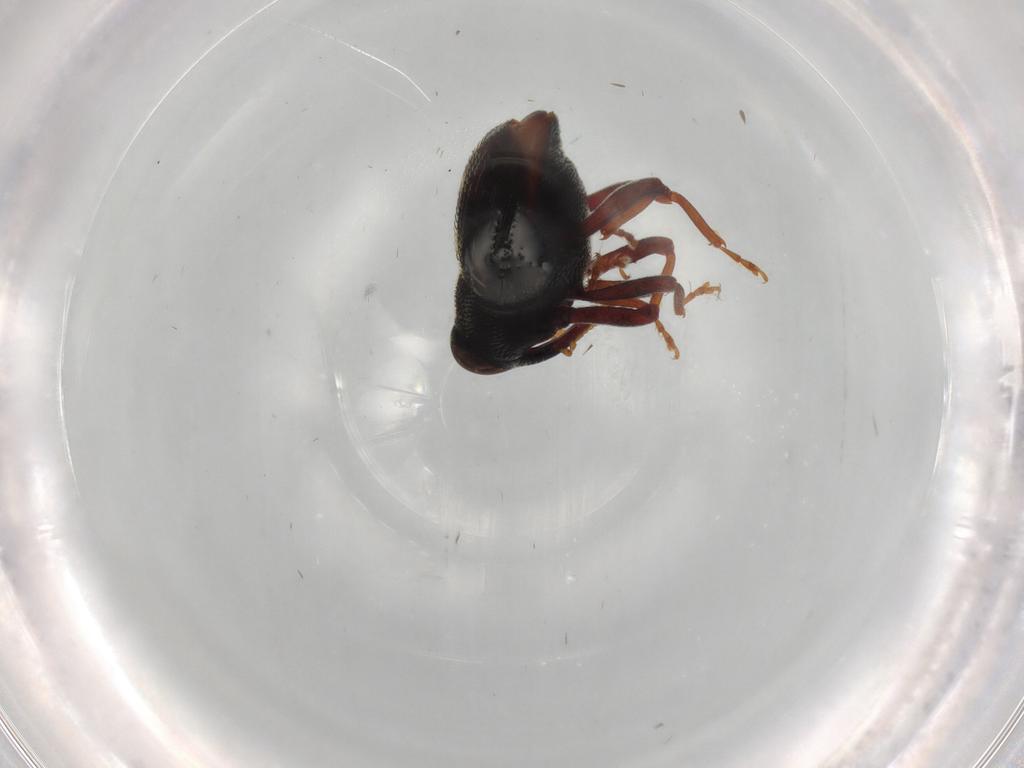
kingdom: Animalia
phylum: Arthropoda
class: Insecta
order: Coleoptera
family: Curculionidae
